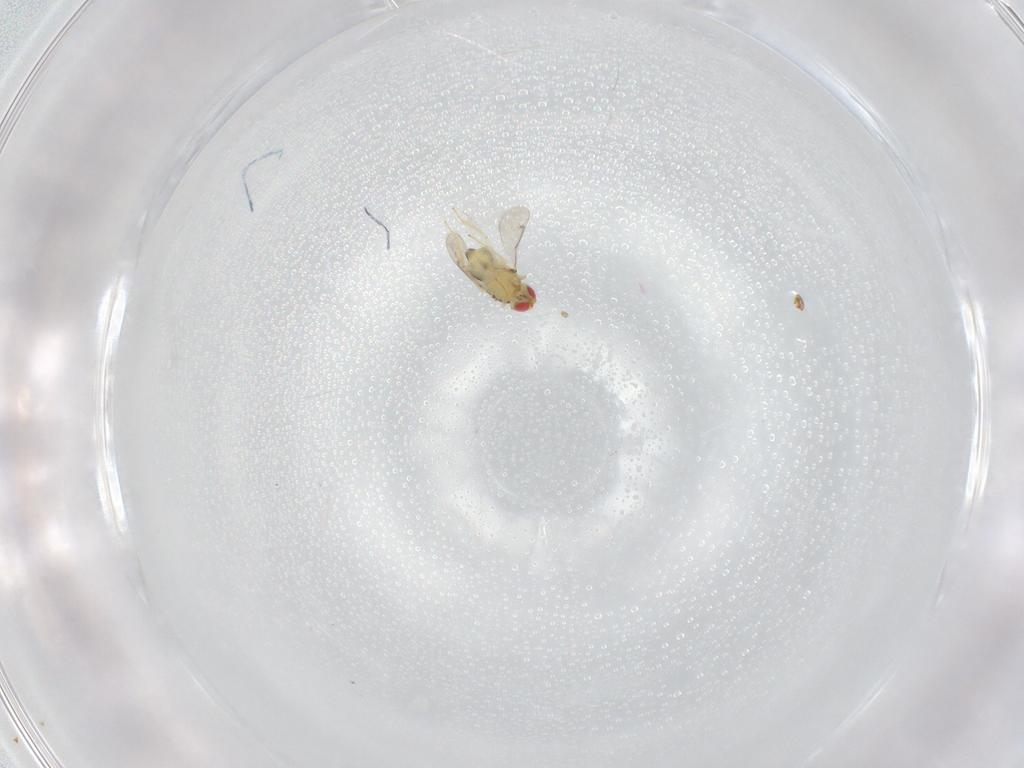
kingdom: Animalia
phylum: Arthropoda
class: Insecta
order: Hymenoptera
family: Aphelinidae
